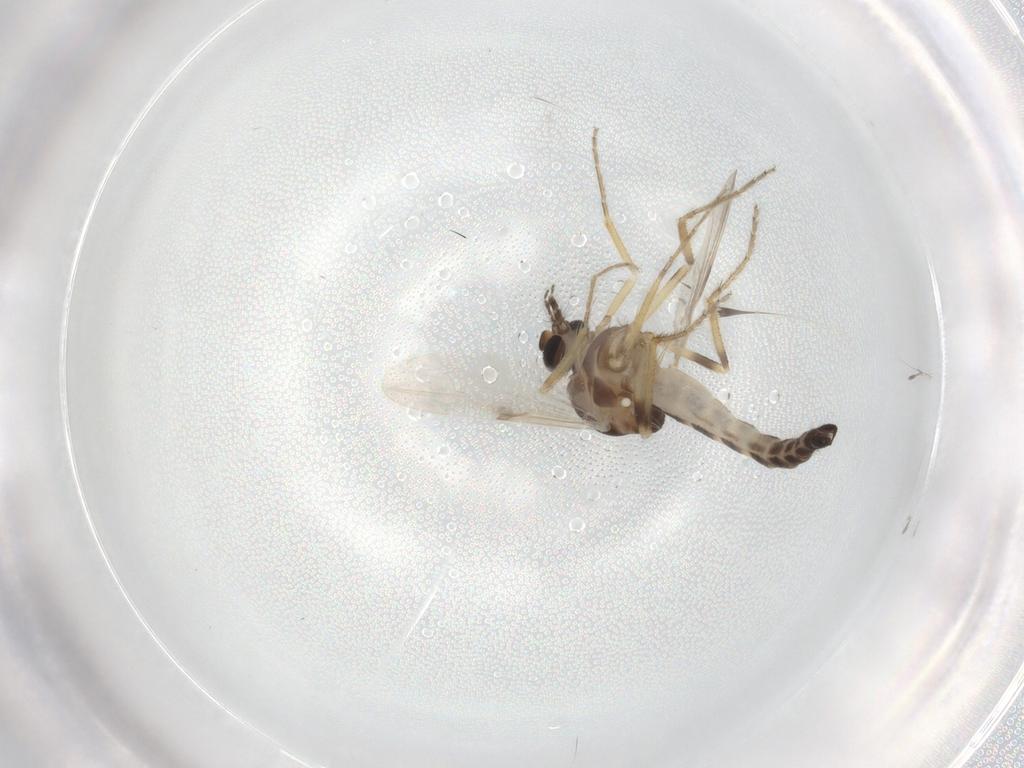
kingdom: Animalia
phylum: Arthropoda
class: Insecta
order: Diptera
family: Ceratopogonidae
